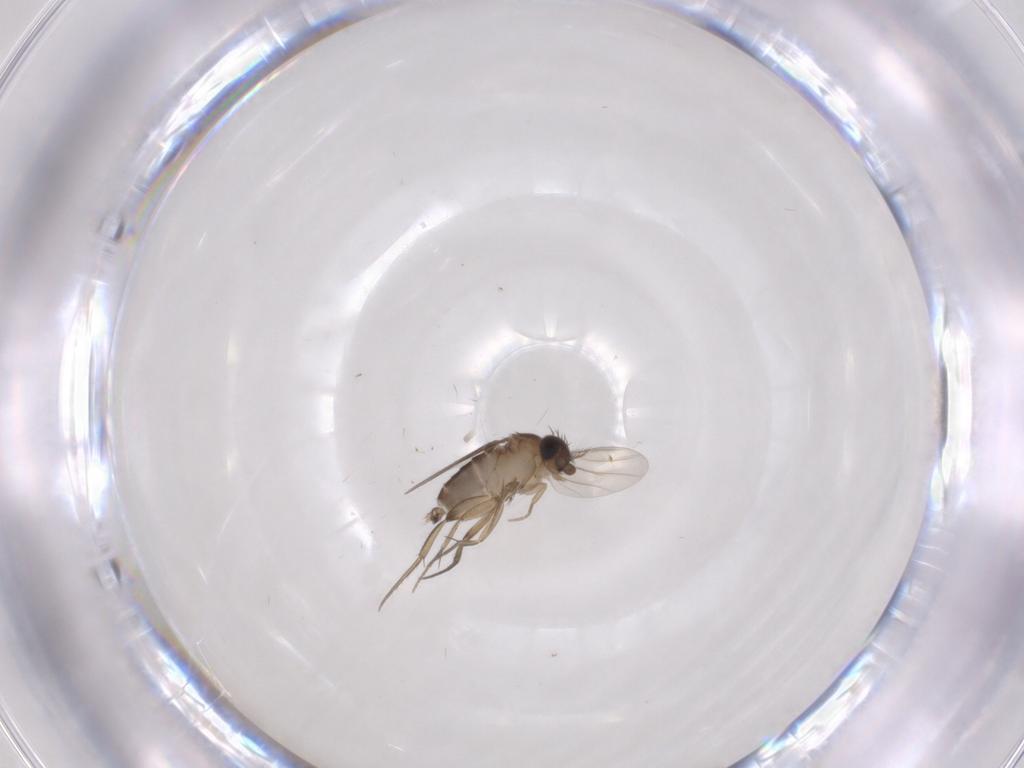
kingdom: Animalia
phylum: Arthropoda
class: Insecta
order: Diptera
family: Phoridae
